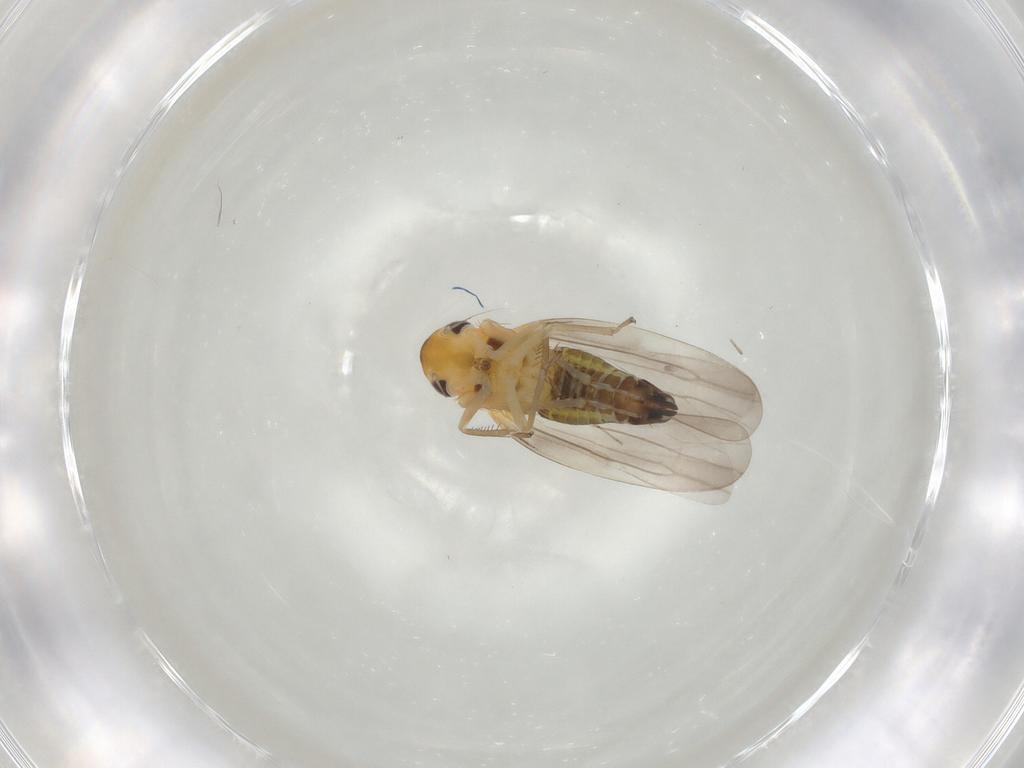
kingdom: Animalia
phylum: Arthropoda
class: Insecta
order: Hemiptera
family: Cicadellidae
